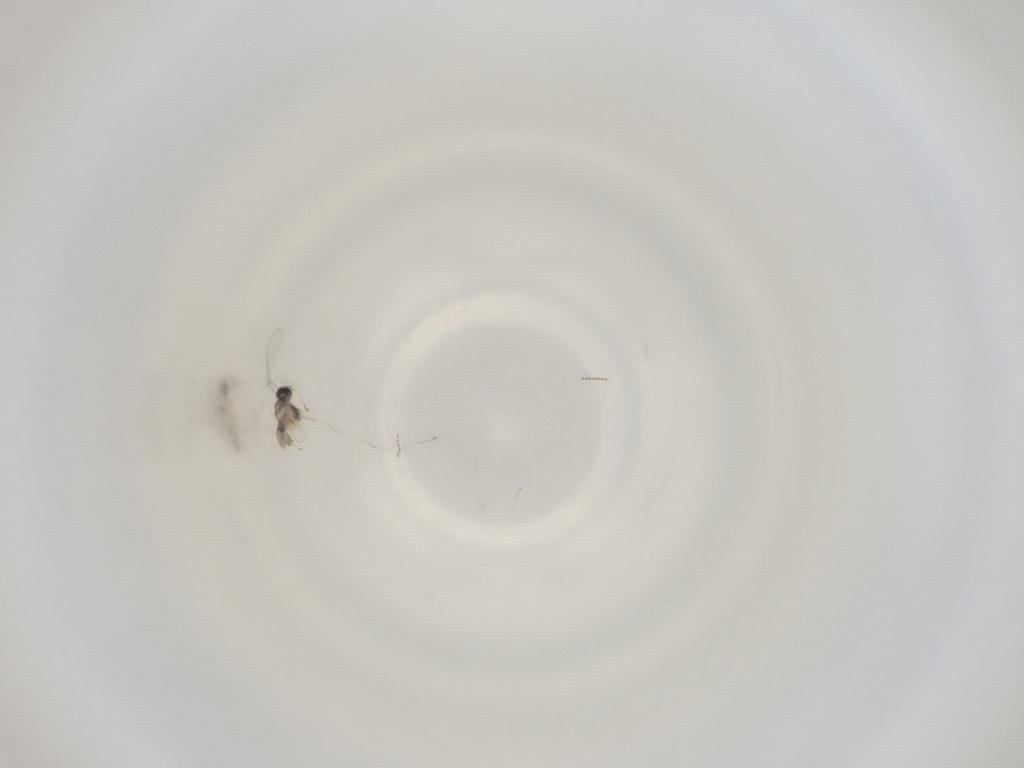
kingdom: Animalia
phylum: Arthropoda
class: Insecta
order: Diptera
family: Cecidomyiidae
